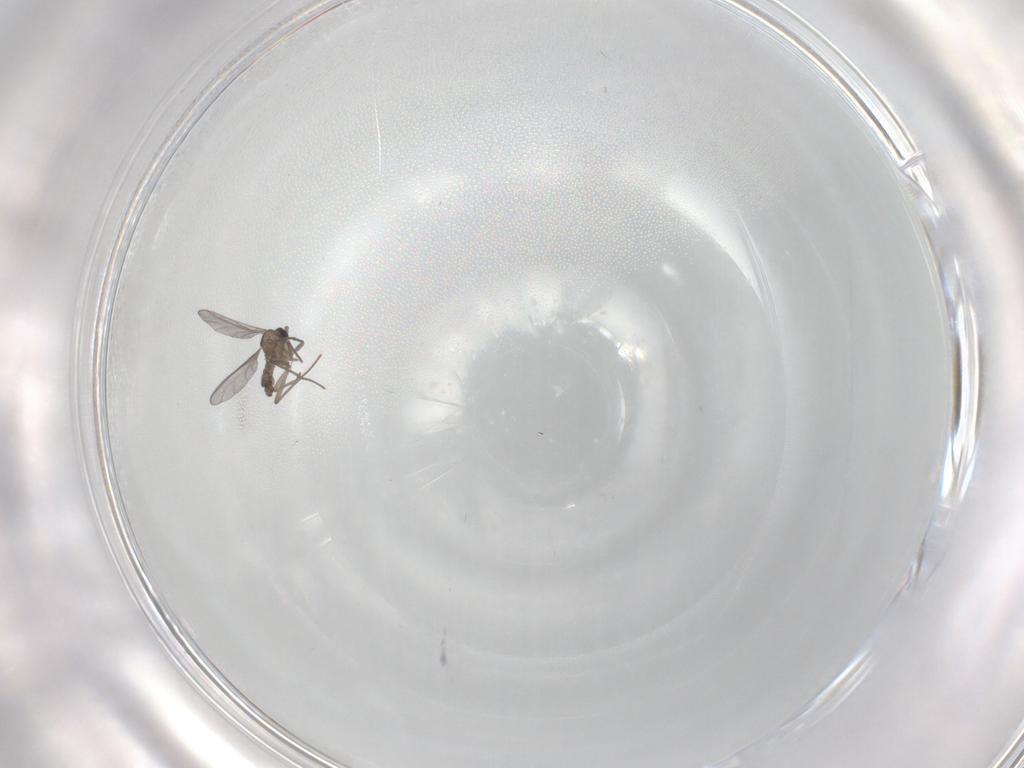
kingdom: Animalia
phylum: Arthropoda
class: Insecta
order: Diptera
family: Sciaridae
